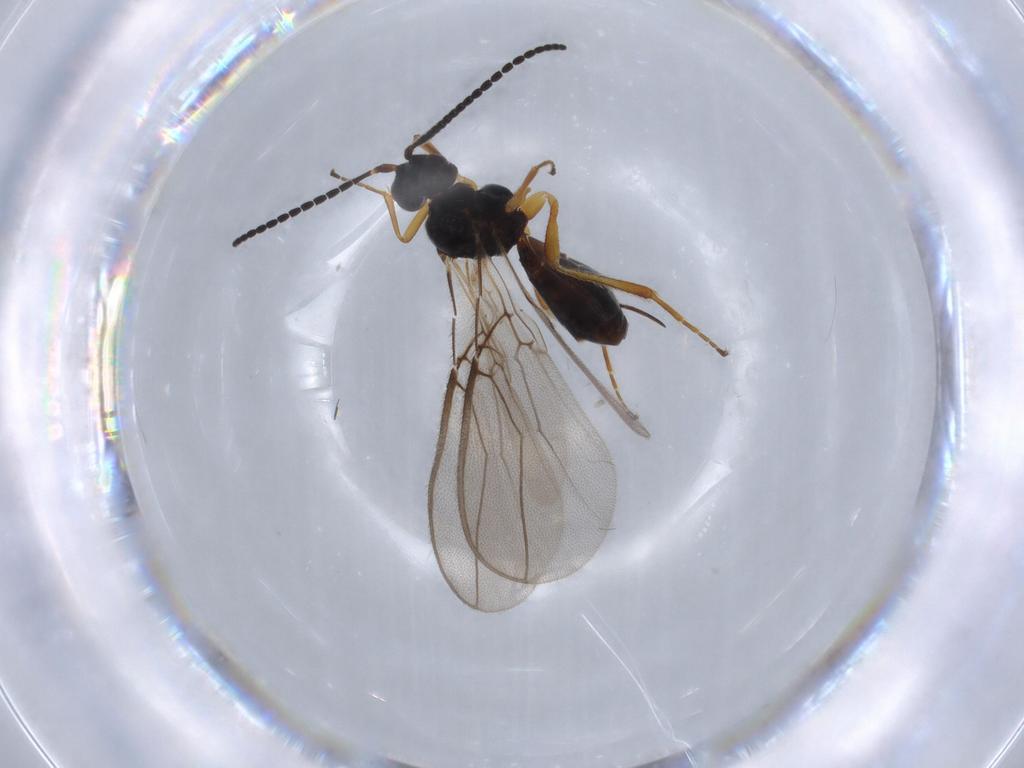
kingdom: Animalia
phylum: Arthropoda
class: Insecta
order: Hymenoptera
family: Braconidae
